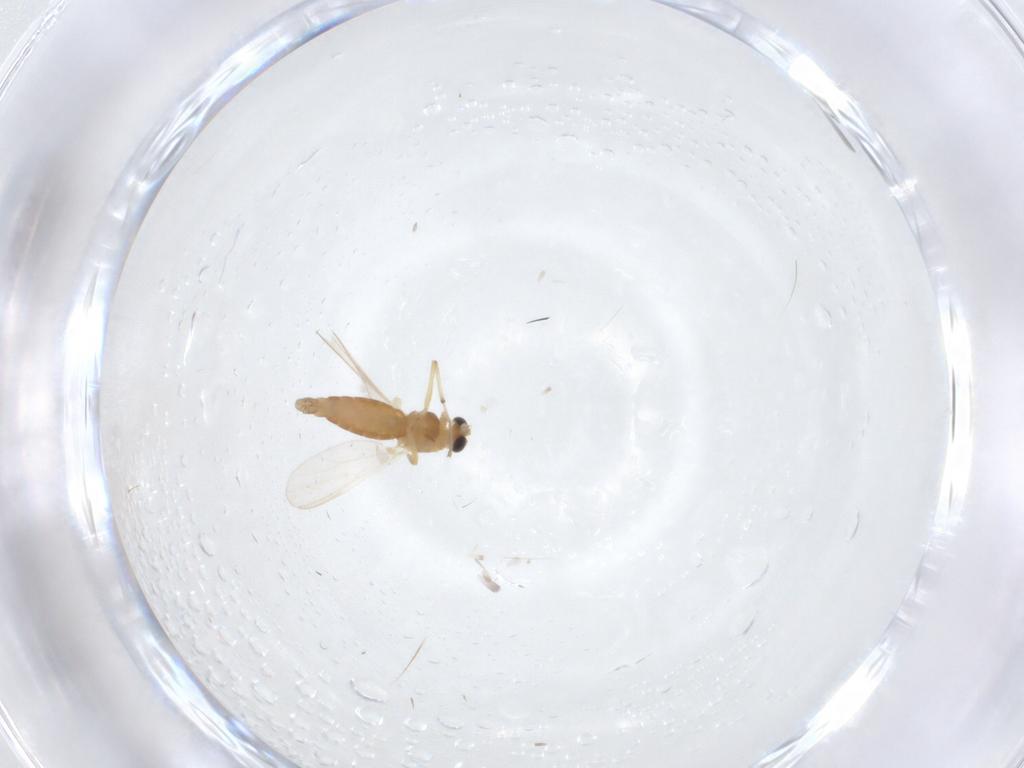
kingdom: Animalia
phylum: Arthropoda
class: Insecta
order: Diptera
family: Chironomidae
